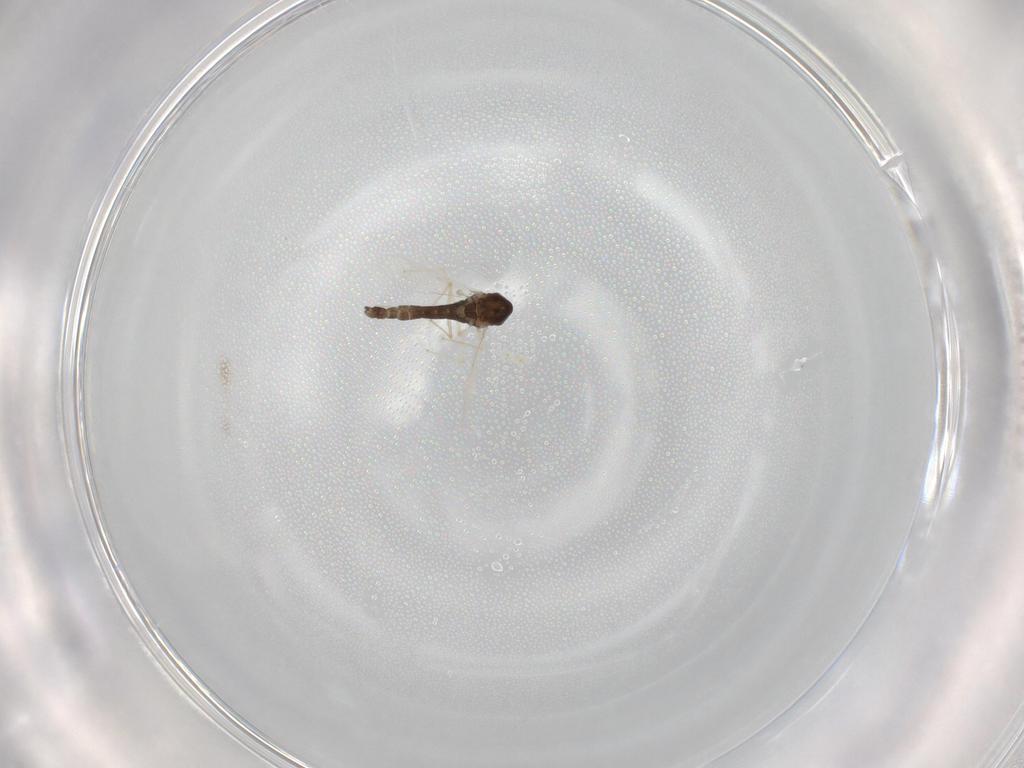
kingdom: Animalia
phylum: Arthropoda
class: Insecta
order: Diptera
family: Chironomidae
